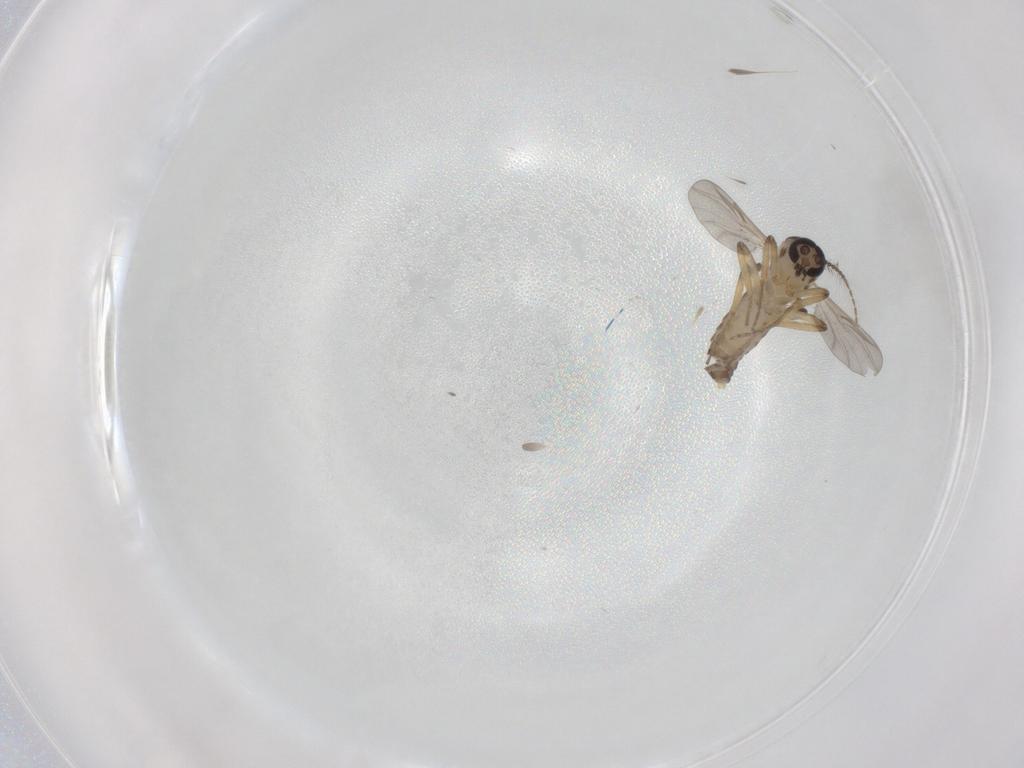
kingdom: Animalia
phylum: Arthropoda
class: Insecta
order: Diptera
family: Ceratopogonidae
